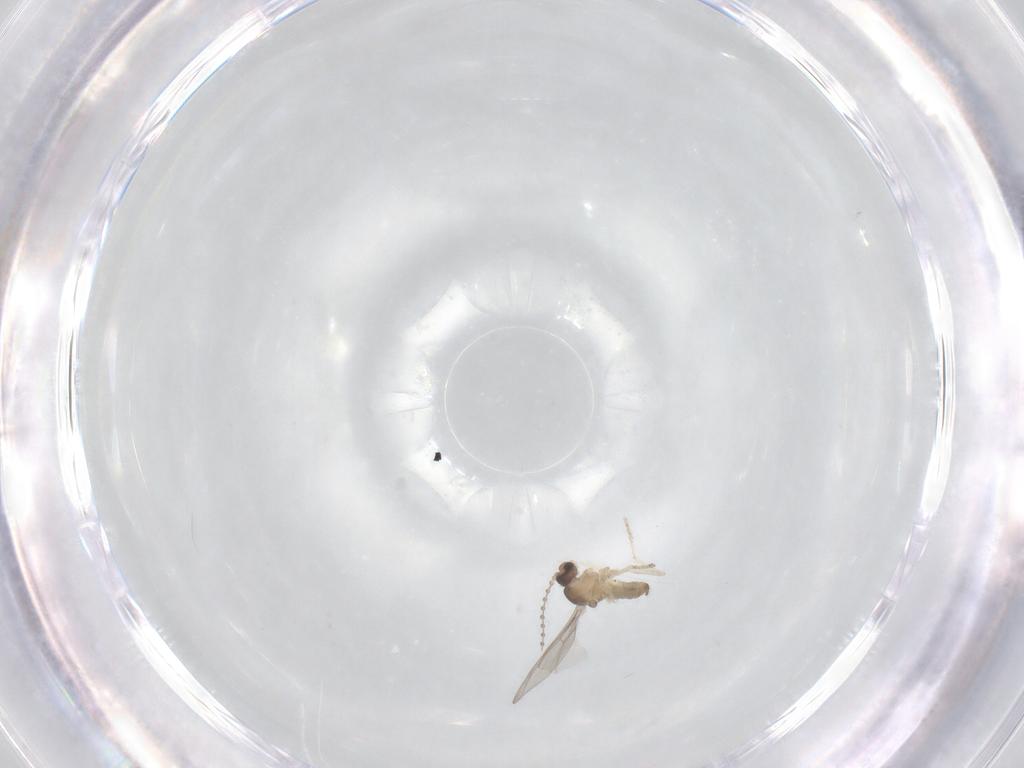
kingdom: Animalia
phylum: Arthropoda
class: Insecta
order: Diptera
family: Cecidomyiidae
